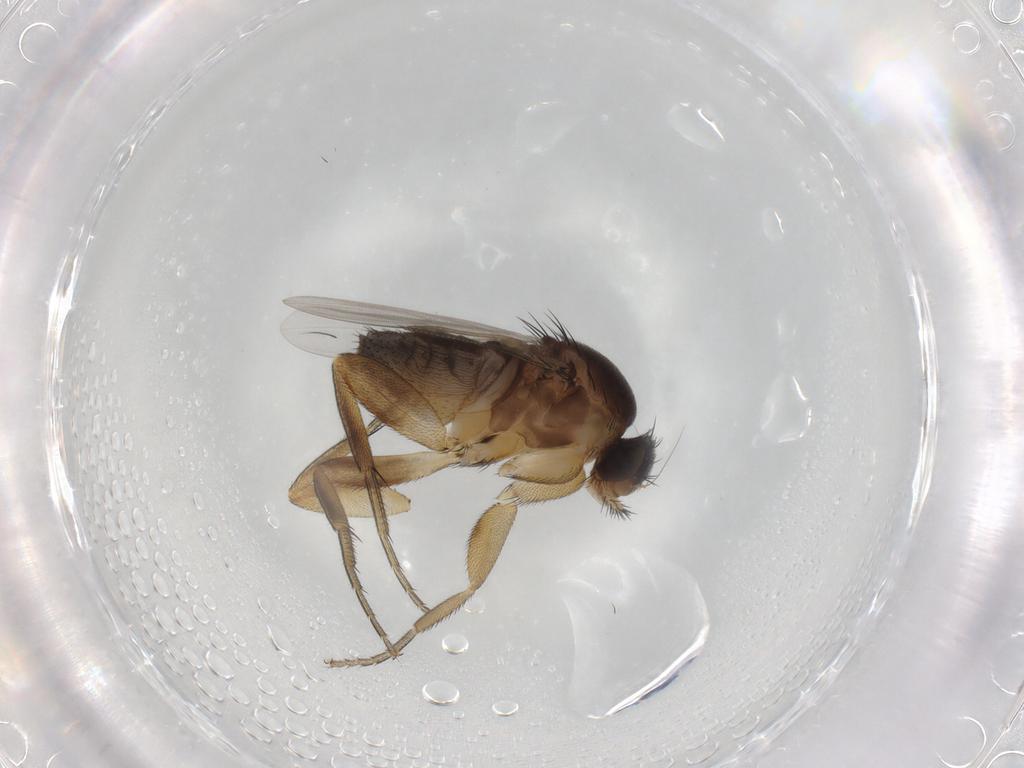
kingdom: Animalia
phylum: Arthropoda
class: Insecta
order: Diptera
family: Phoridae
